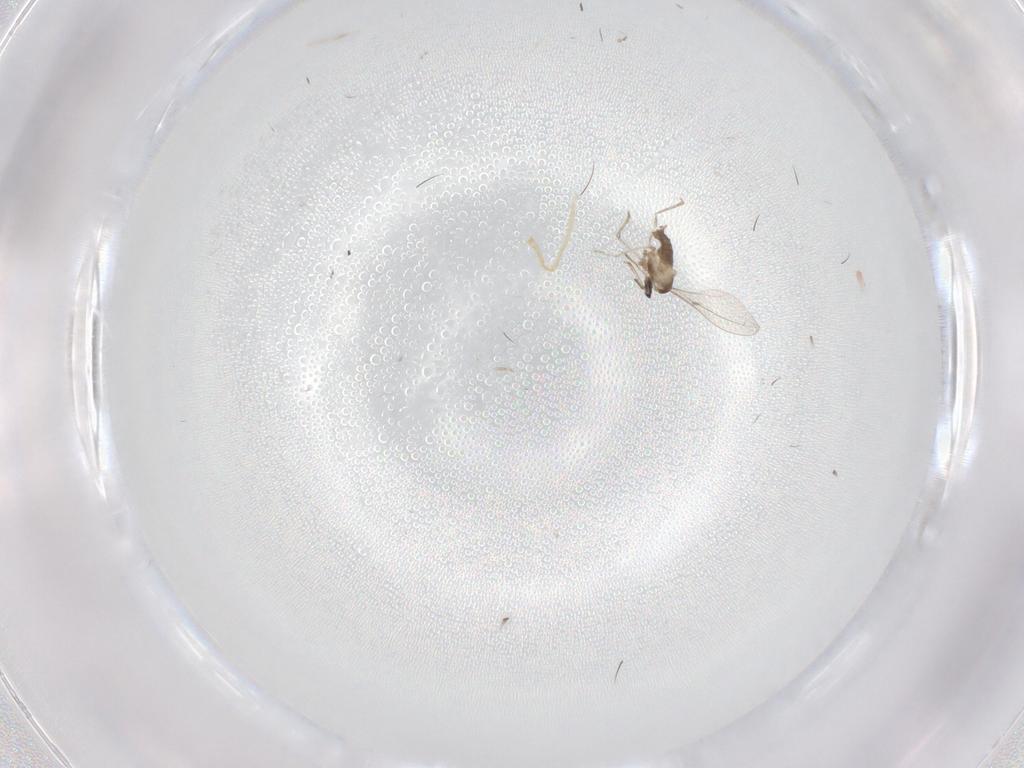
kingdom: Animalia
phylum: Arthropoda
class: Insecta
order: Diptera
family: Cecidomyiidae
